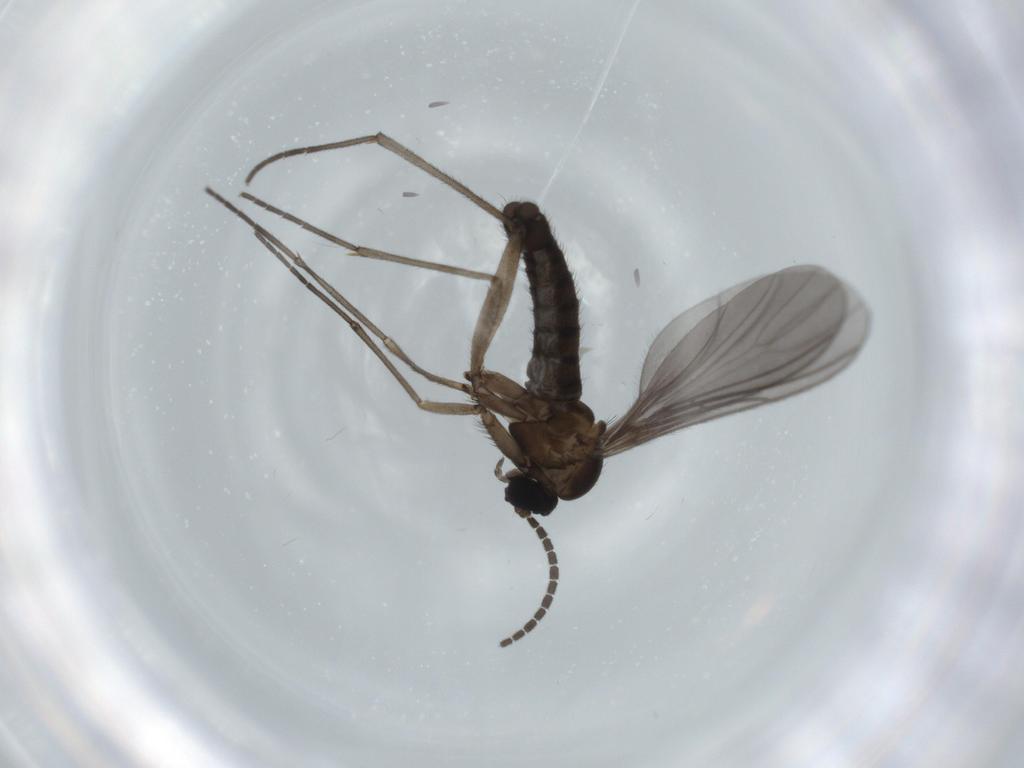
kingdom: Animalia
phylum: Arthropoda
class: Insecta
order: Diptera
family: Sciaridae
